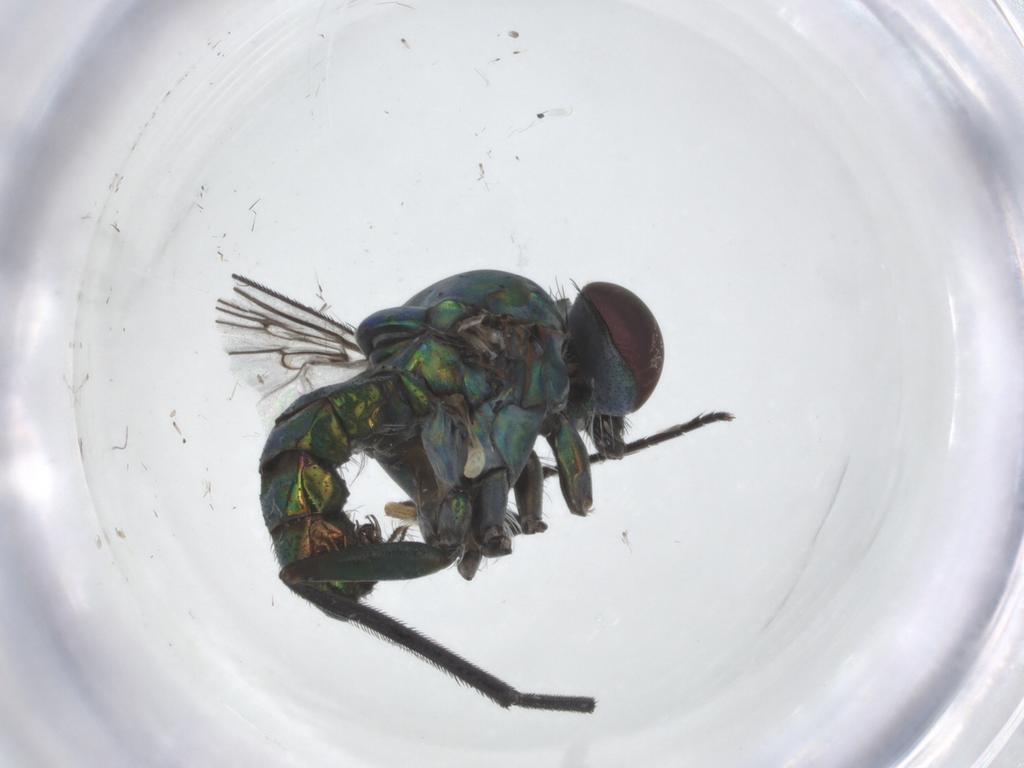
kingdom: Animalia
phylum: Arthropoda
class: Insecta
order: Diptera
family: Dolichopodidae
